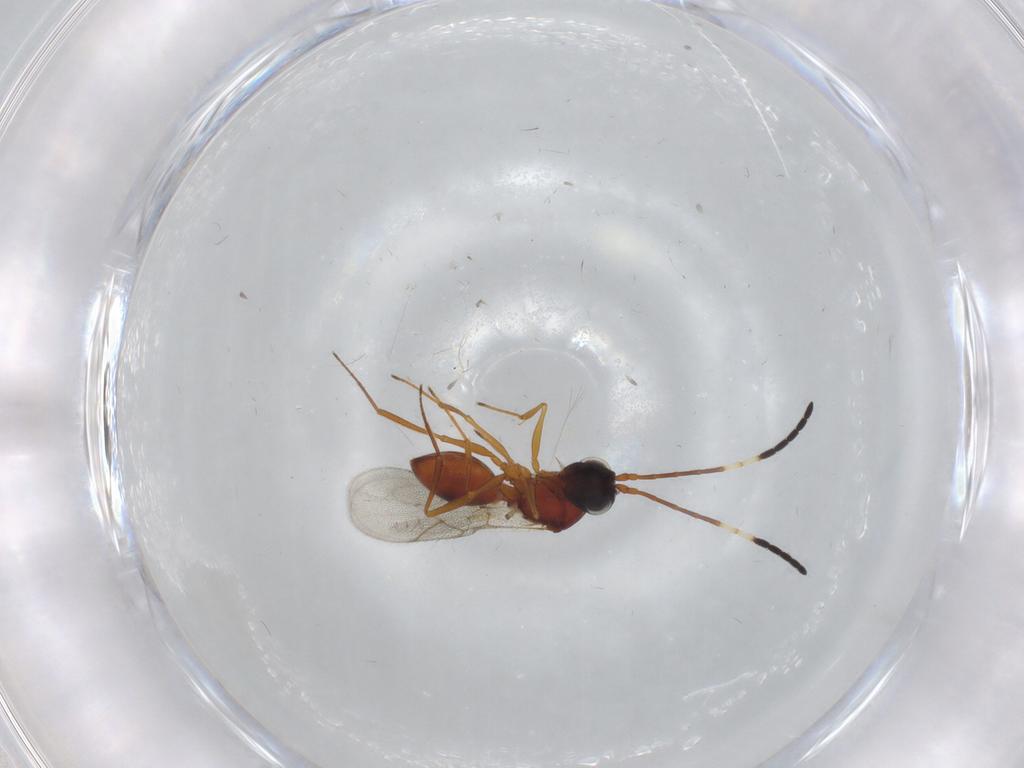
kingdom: Animalia
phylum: Arthropoda
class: Insecta
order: Hymenoptera
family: Figitidae
